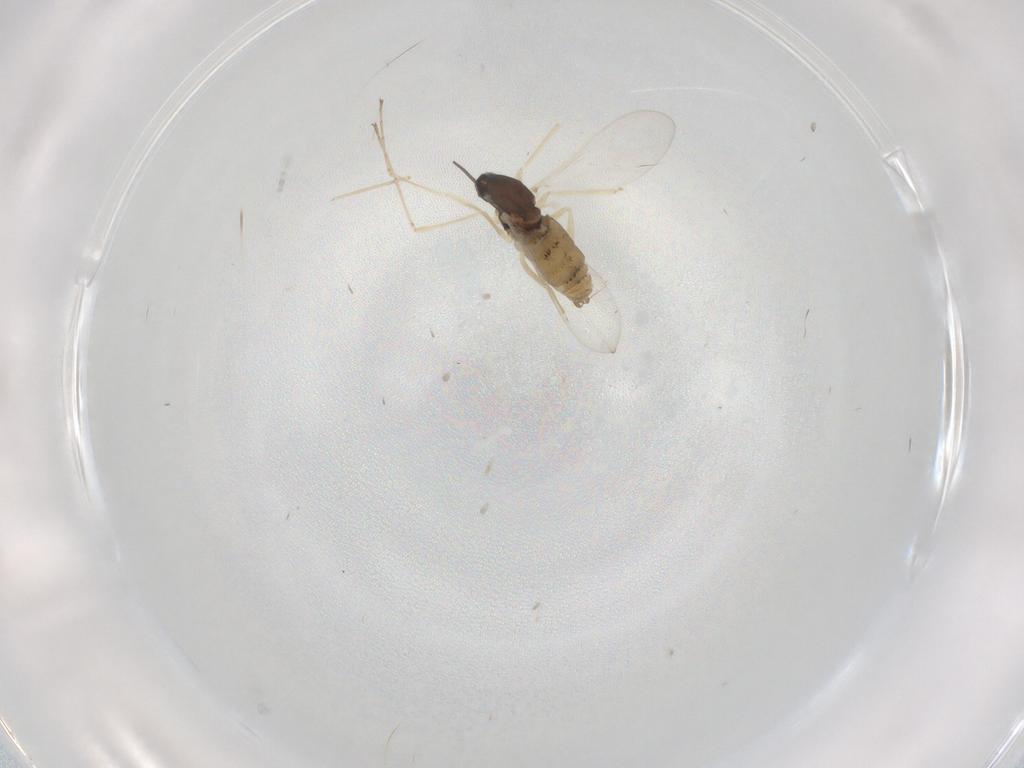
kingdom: Animalia
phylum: Arthropoda
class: Insecta
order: Diptera
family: Cecidomyiidae
